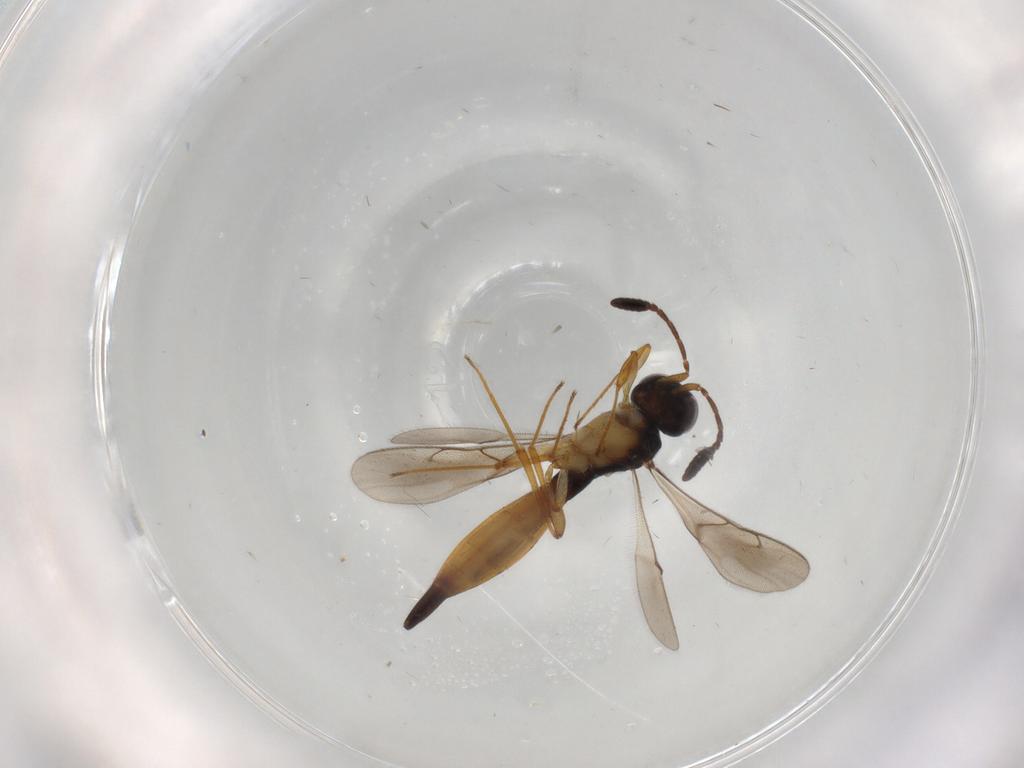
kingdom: Animalia
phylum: Arthropoda
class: Insecta
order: Hymenoptera
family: Scelionidae
